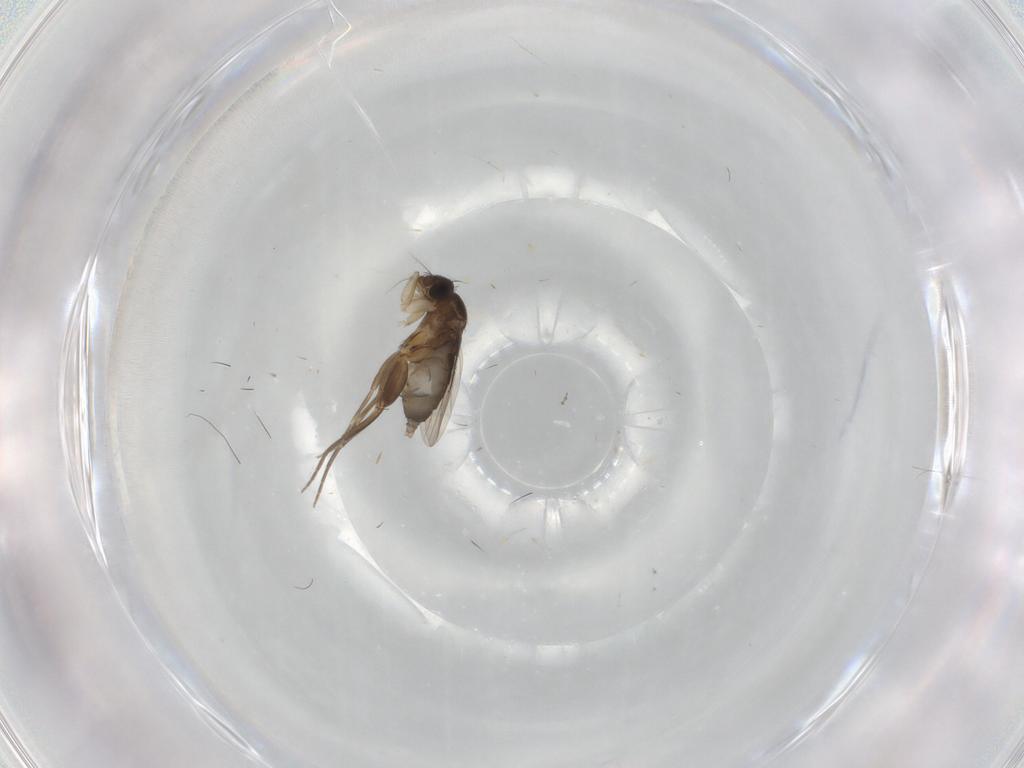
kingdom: Animalia
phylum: Arthropoda
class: Insecta
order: Diptera
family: Phoridae
